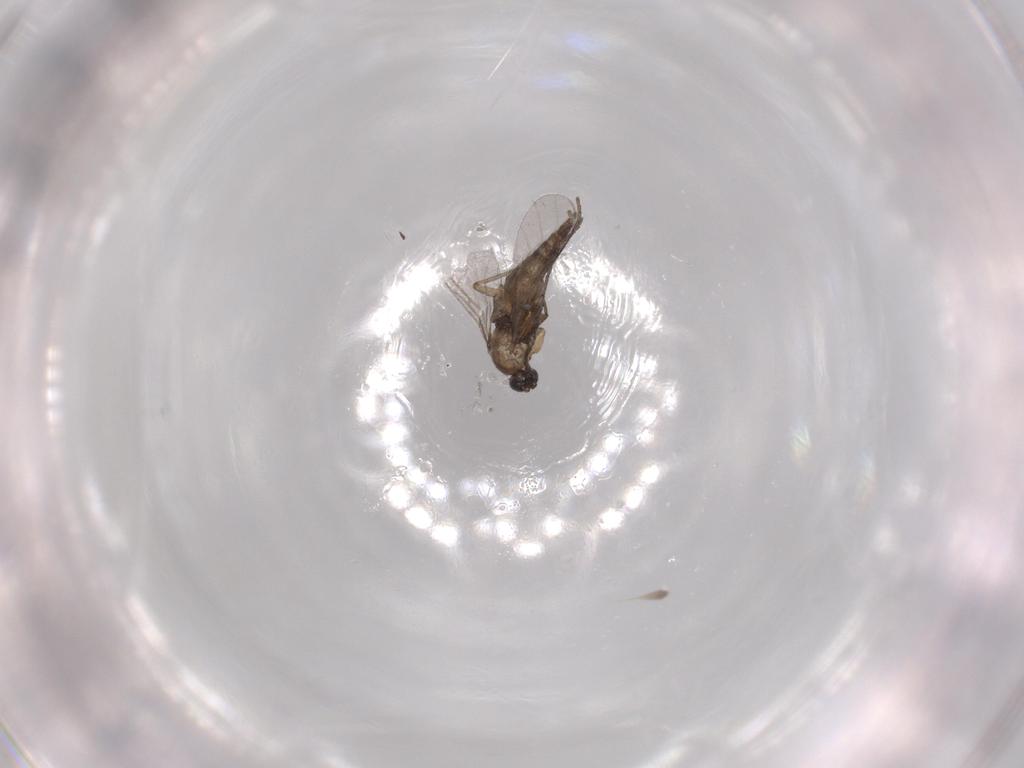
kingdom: Animalia
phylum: Arthropoda
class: Insecta
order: Diptera
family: Sciaridae
